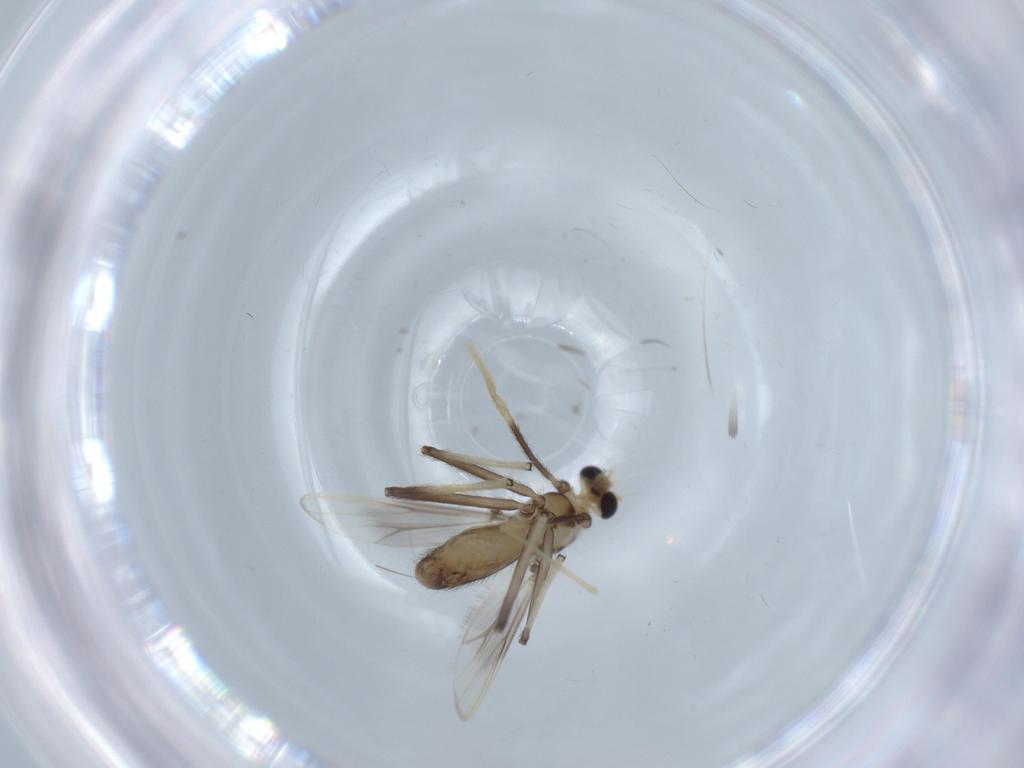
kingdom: Animalia
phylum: Arthropoda
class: Insecta
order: Diptera
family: Chironomidae
